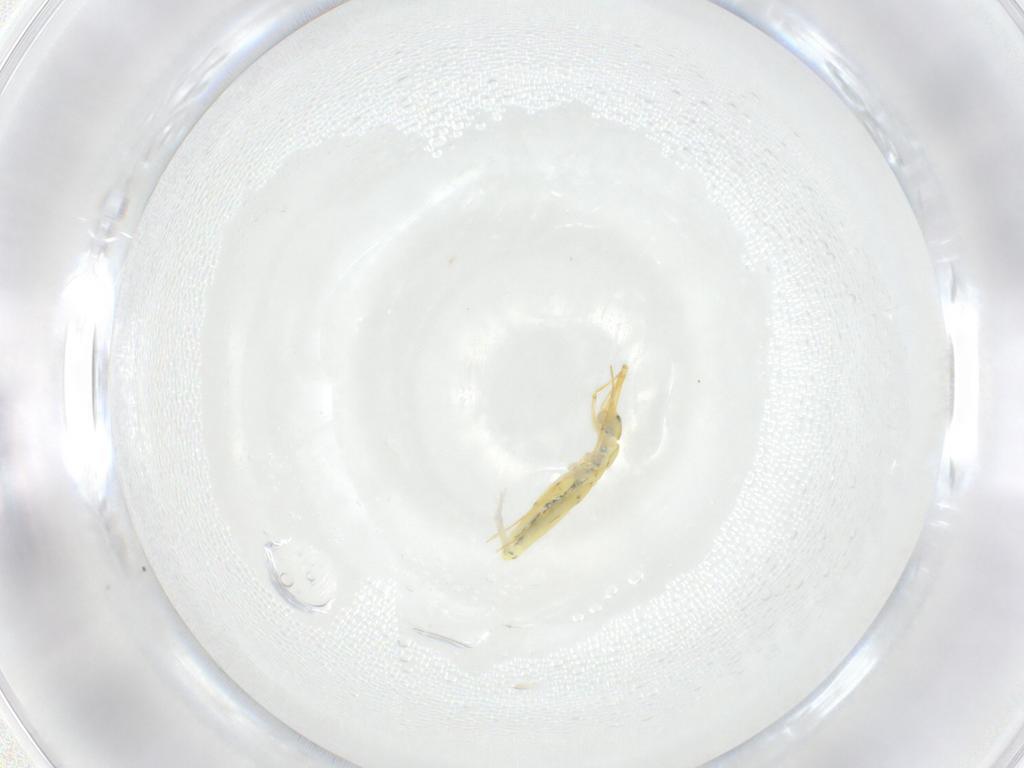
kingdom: Animalia
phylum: Arthropoda
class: Collembola
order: Entomobryomorpha
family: Entomobryidae
